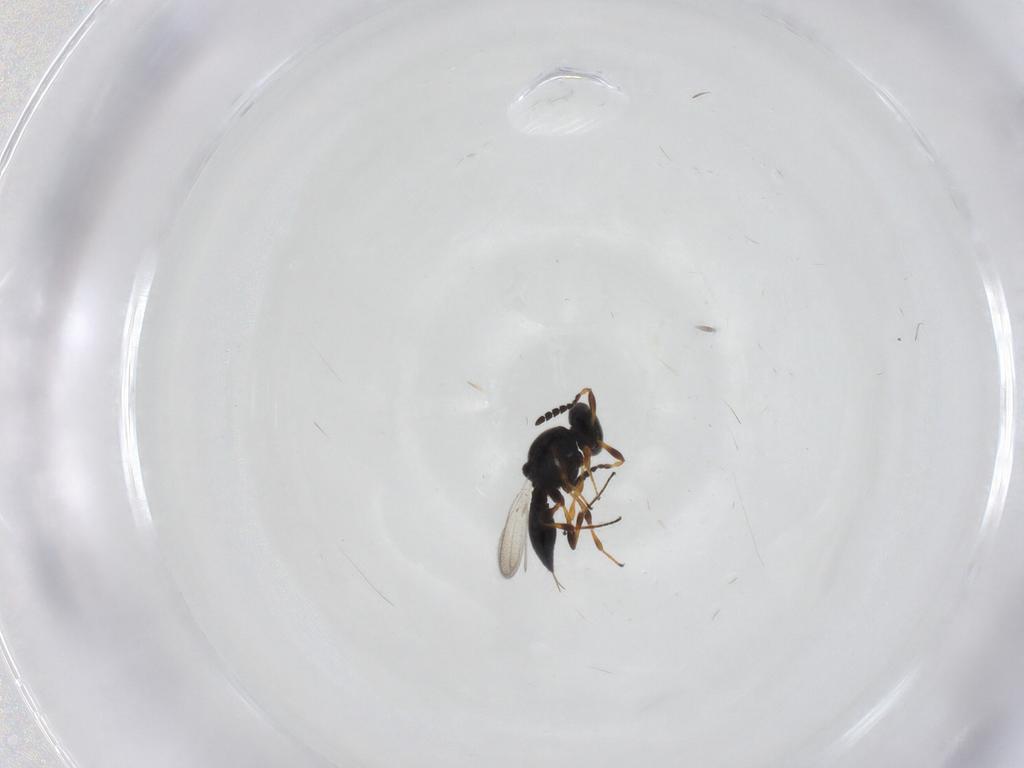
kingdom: Animalia
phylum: Arthropoda
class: Insecta
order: Hymenoptera
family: Platygastridae
